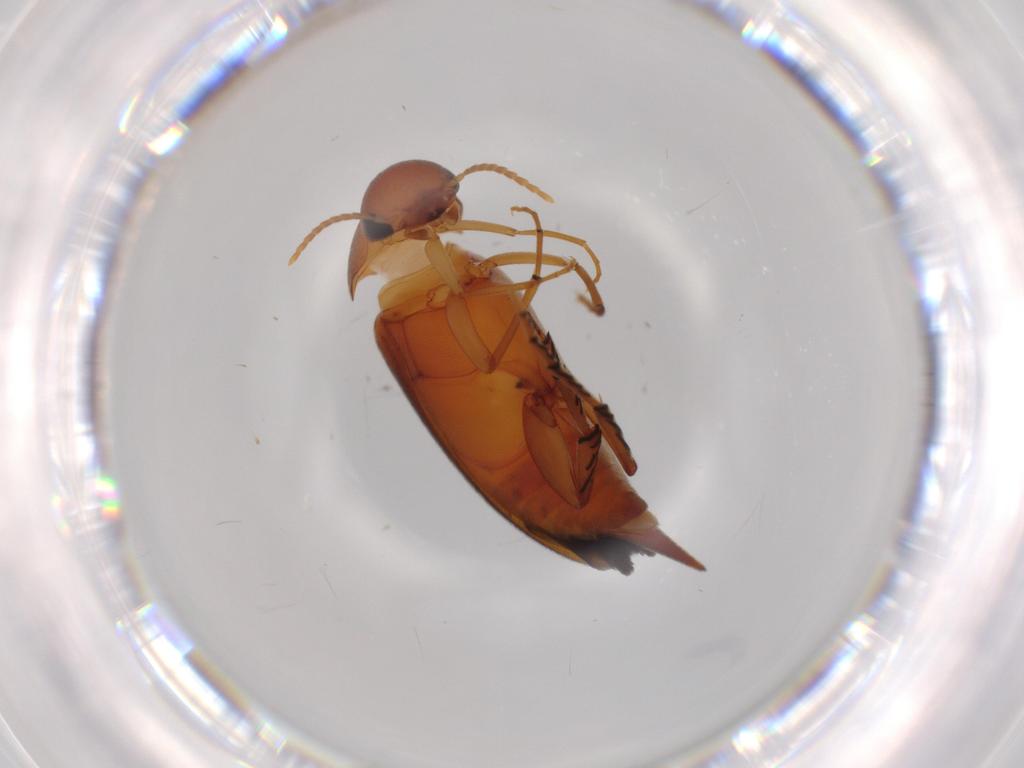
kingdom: Animalia
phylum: Arthropoda
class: Insecta
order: Coleoptera
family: Mordellidae
